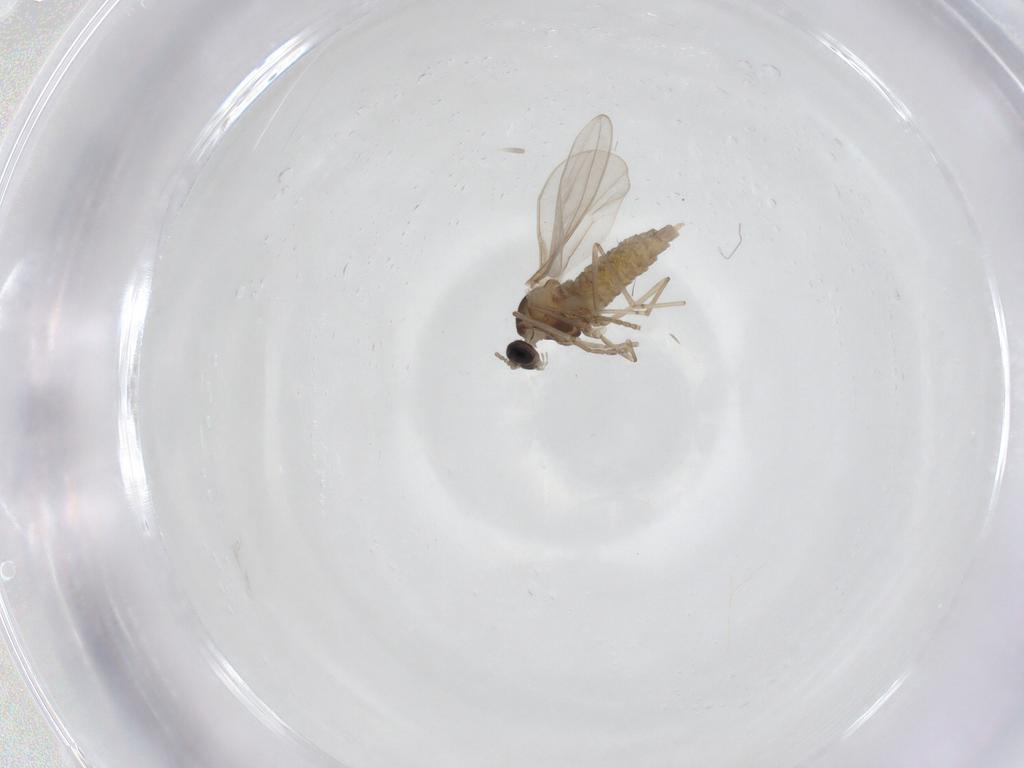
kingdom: Animalia
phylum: Arthropoda
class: Insecta
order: Diptera
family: Cecidomyiidae
